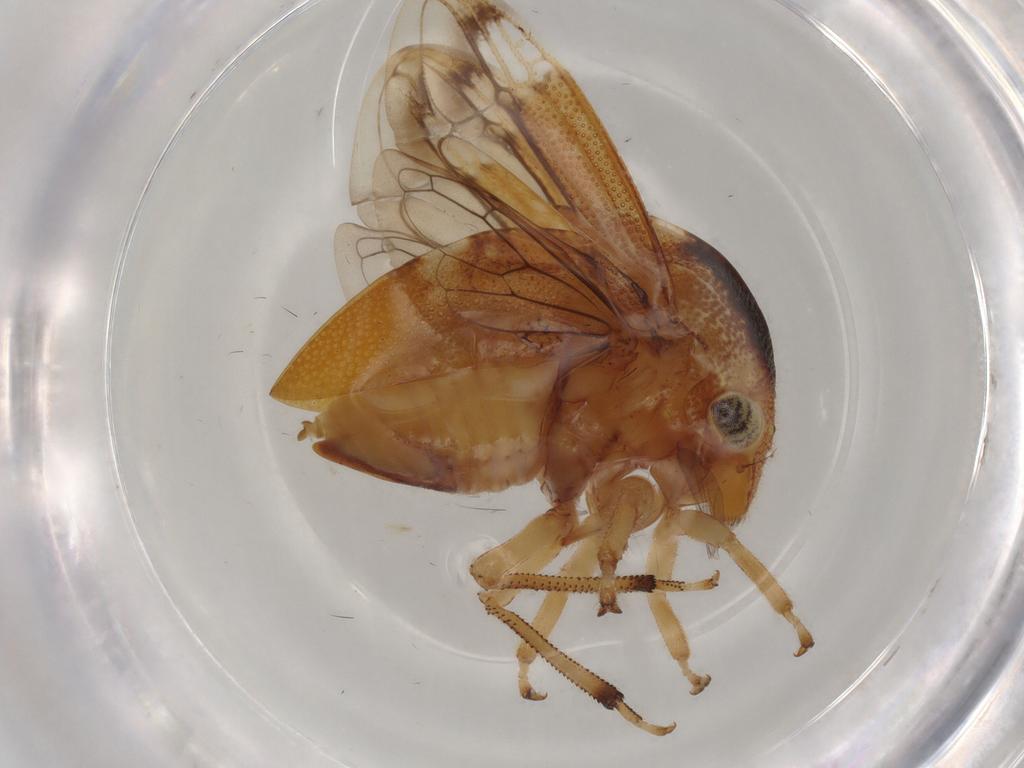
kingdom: Animalia
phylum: Arthropoda
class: Insecta
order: Hemiptera
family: Membracidae
